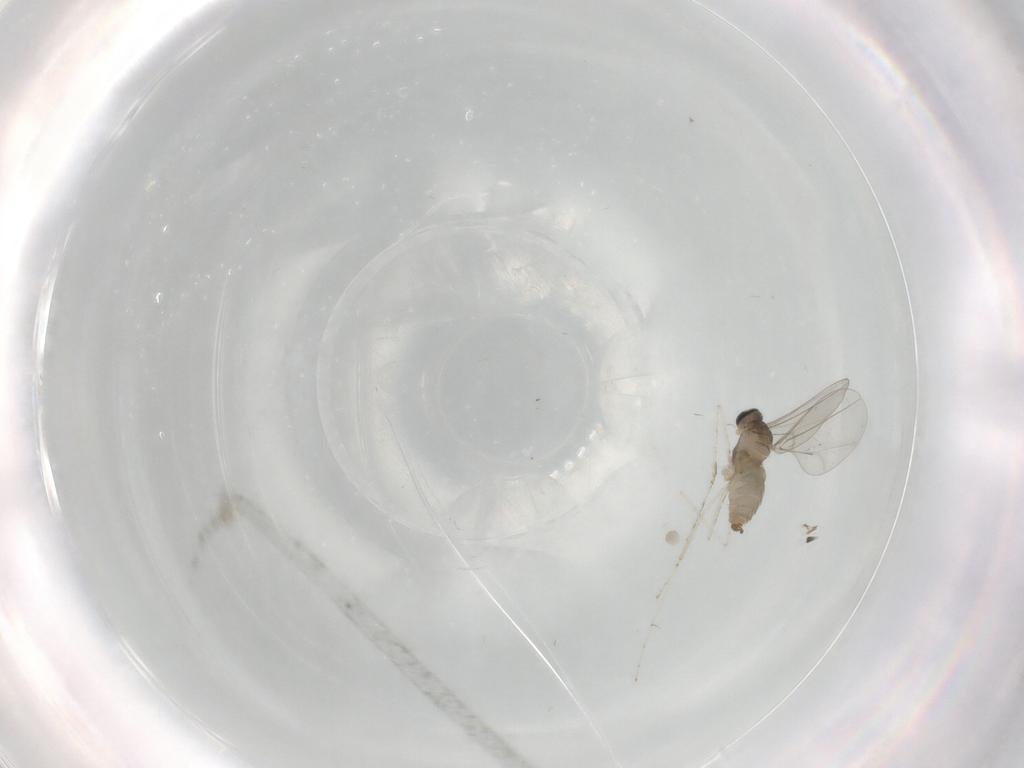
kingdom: Animalia
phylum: Arthropoda
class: Insecta
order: Diptera
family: Cecidomyiidae
